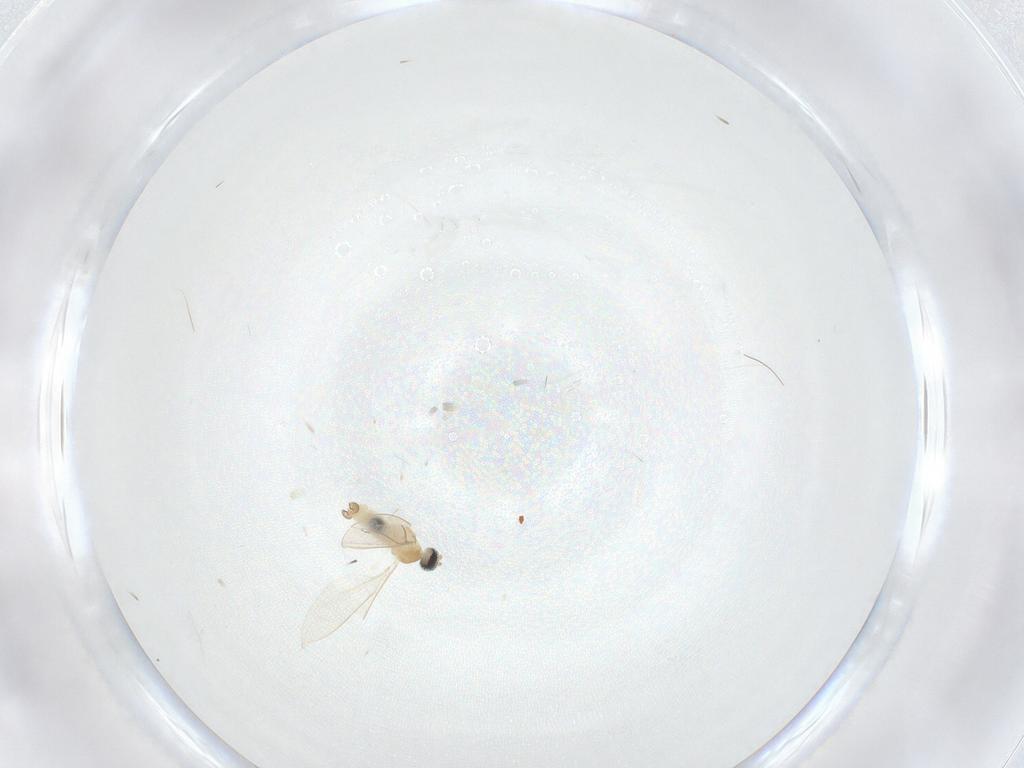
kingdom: Animalia
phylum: Arthropoda
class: Insecta
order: Diptera
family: Cecidomyiidae
